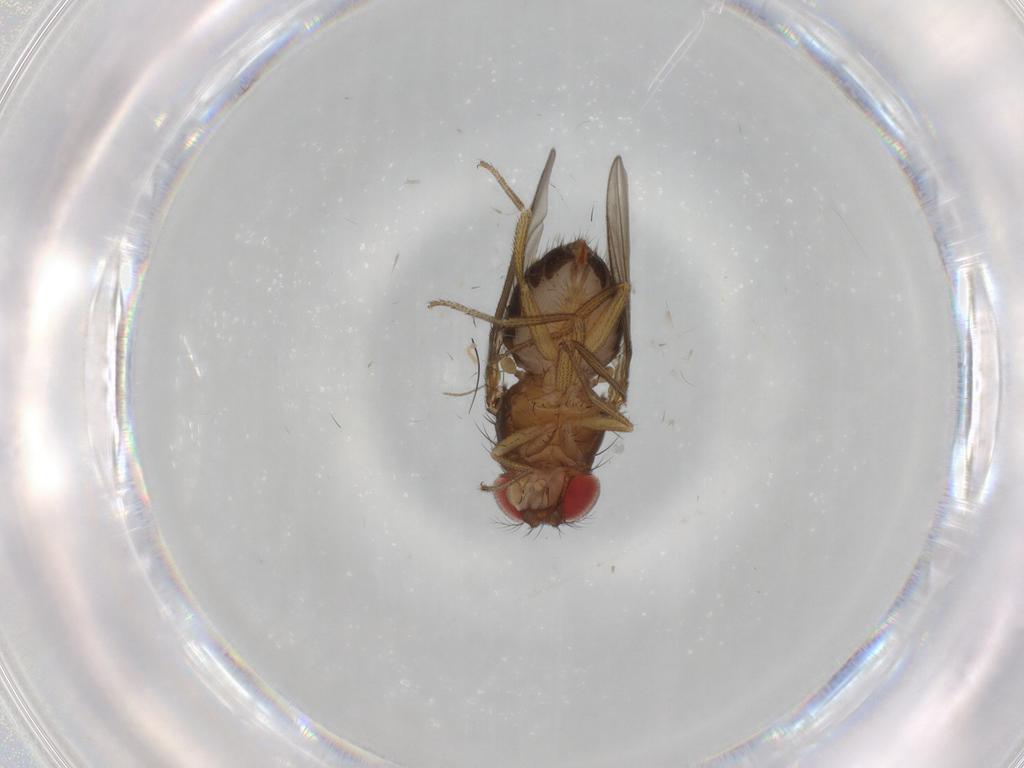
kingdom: Animalia
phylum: Arthropoda
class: Insecta
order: Diptera
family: Drosophilidae
